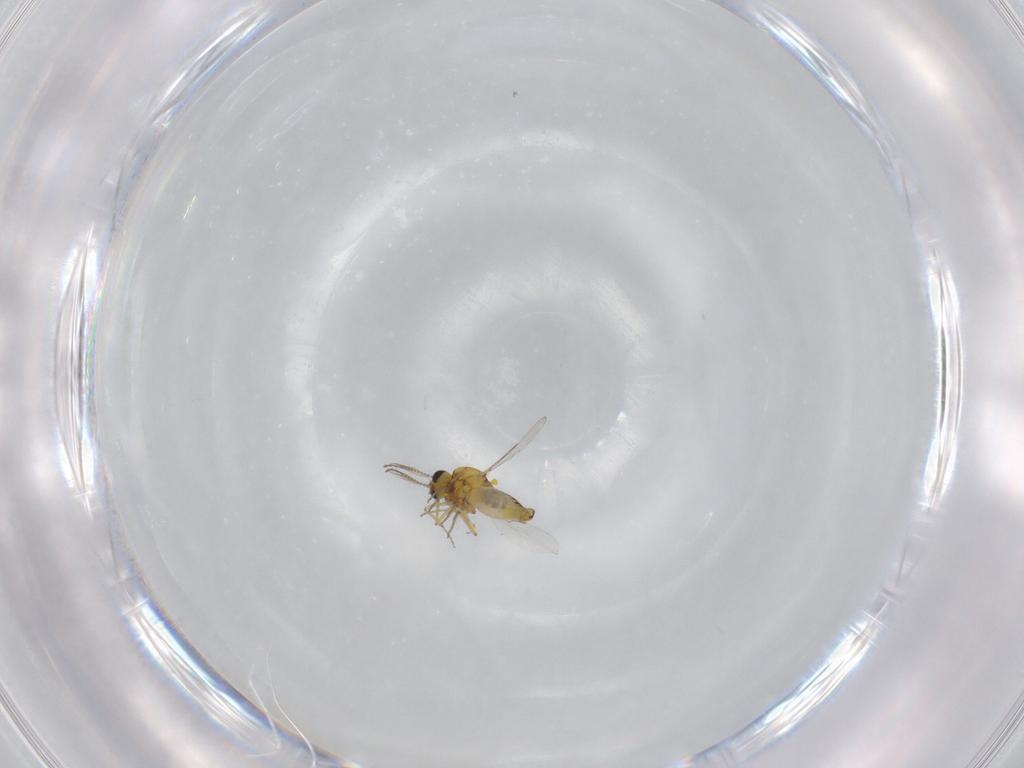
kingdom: Animalia
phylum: Arthropoda
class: Insecta
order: Diptera
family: Ceratopogonidae
